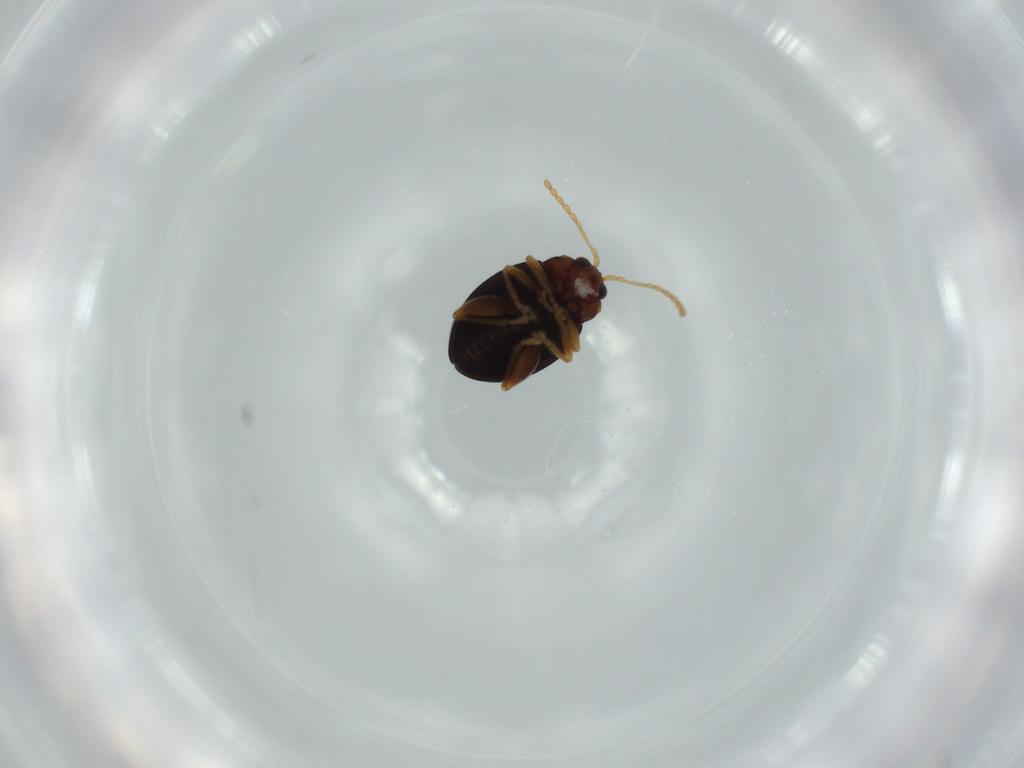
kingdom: Animalia
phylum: Arthropoda
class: Insecta
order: Coleoptera
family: Chrysomelidae
